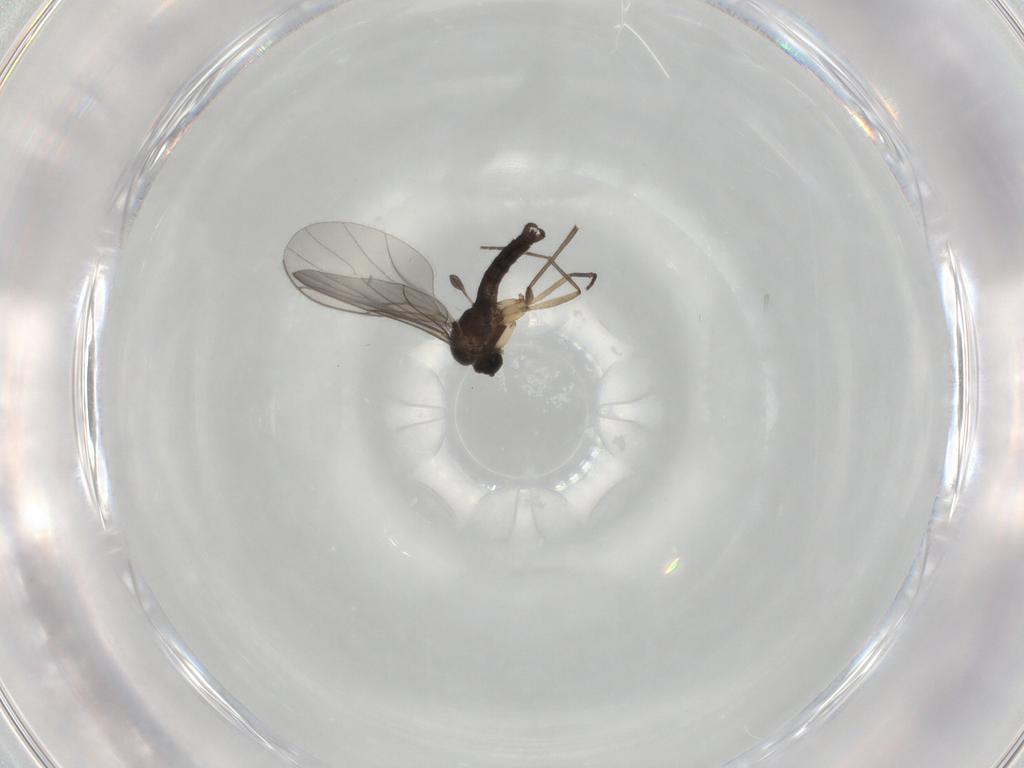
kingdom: Animalia
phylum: Arthropoda
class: Insecta
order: Diptera
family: Sciaridae
